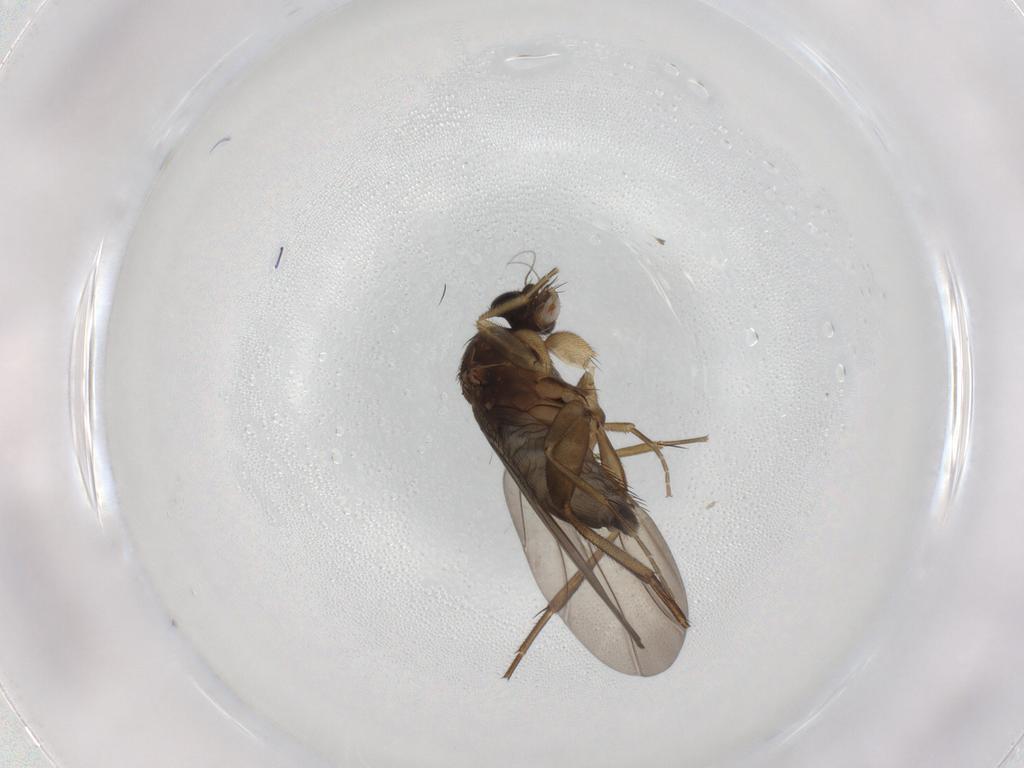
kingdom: Animalia
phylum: Arthropoda
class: Insecta
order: Diptera
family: Phoridae
